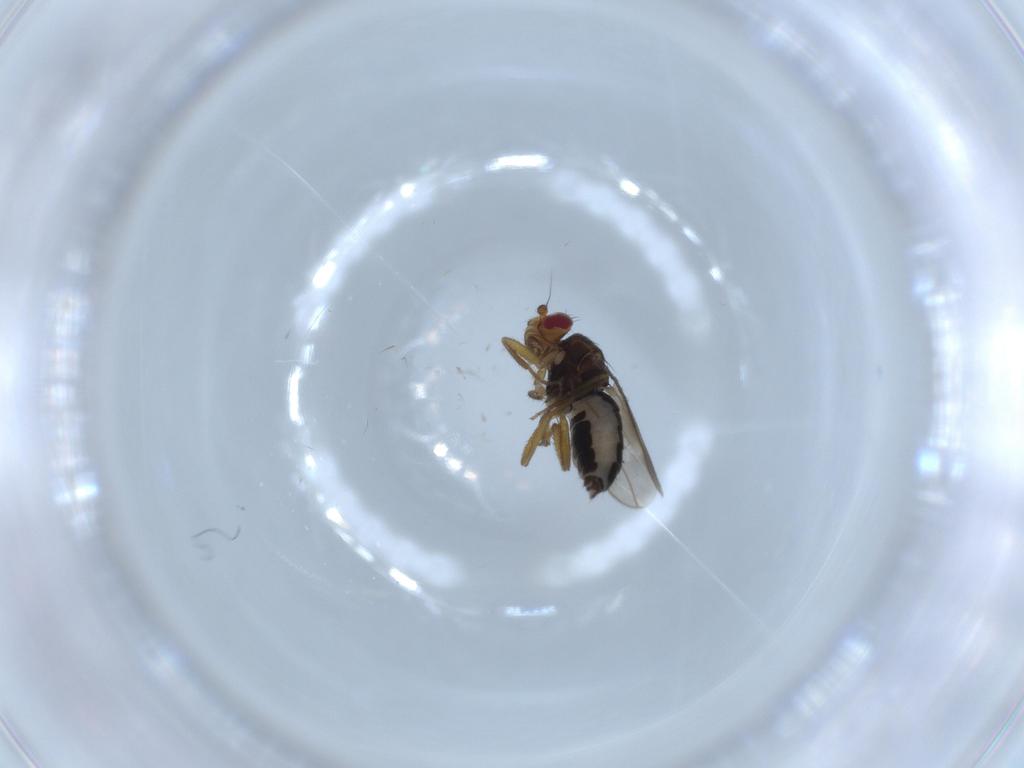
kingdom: Animalia
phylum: Arthropoda
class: Insecta
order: Diptera
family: Sphaeroceridae
